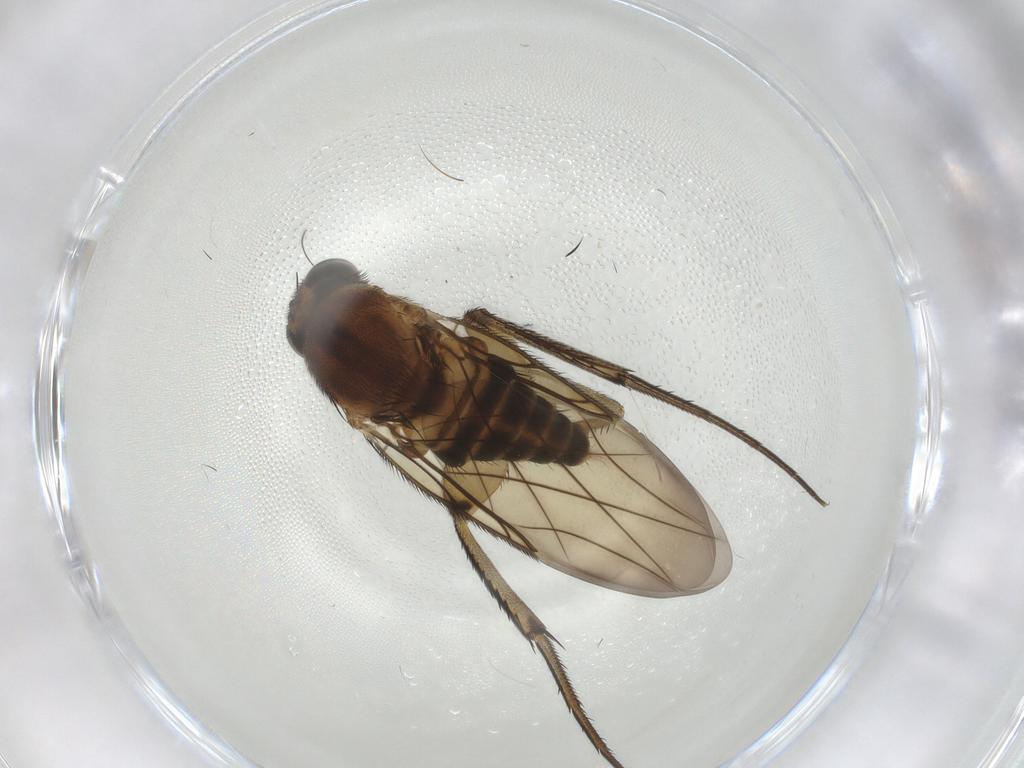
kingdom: Animalia
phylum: Arthropoda
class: Insecta
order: Diptera
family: Phoridae
